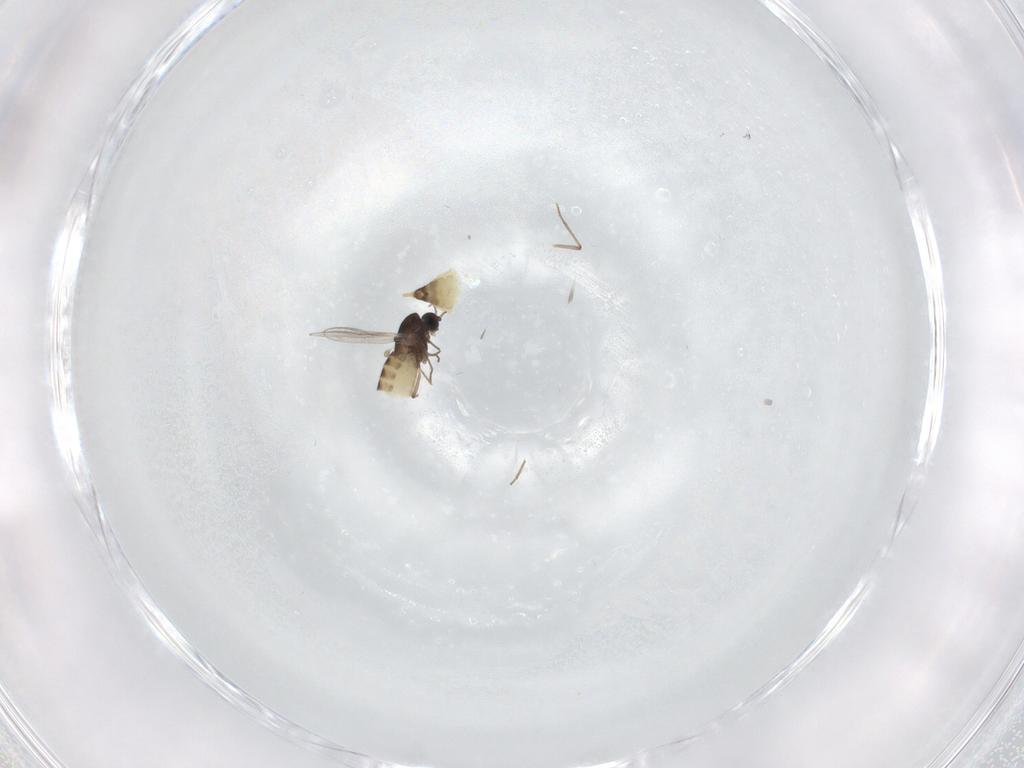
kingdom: Animalia
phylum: Arthropoda
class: Insecta
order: Diptera
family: Chironomidae
